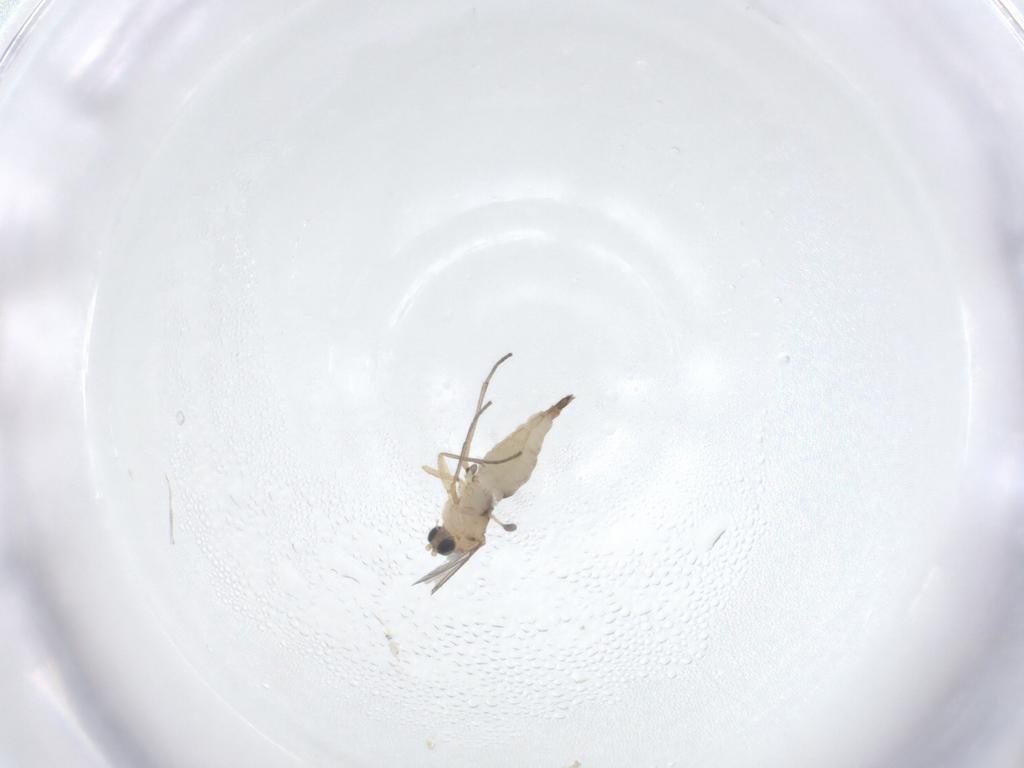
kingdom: Animalia
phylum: Arthropoda
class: Insecta
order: Diptera
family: Sciaridae
